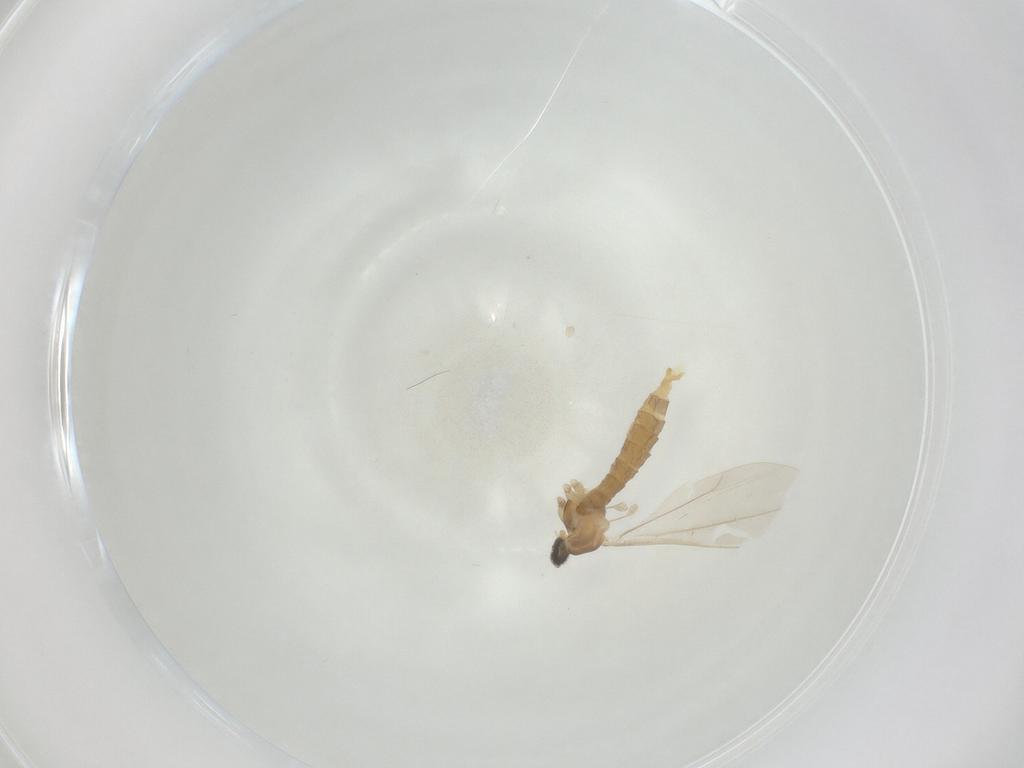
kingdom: Animalia
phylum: Arthropoda
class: Insecta
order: Diptera
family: Cecidomyiidae
